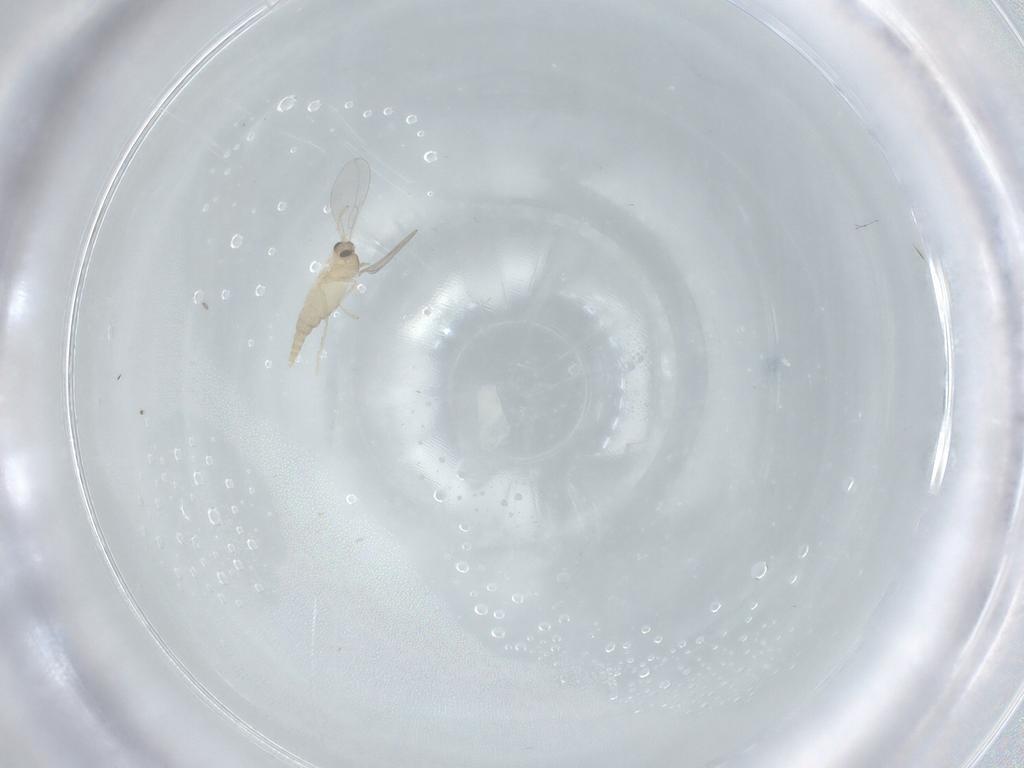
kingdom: Animalia
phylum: Arthropoda
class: Insecta
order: Diptera
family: Cecidomyiidae
